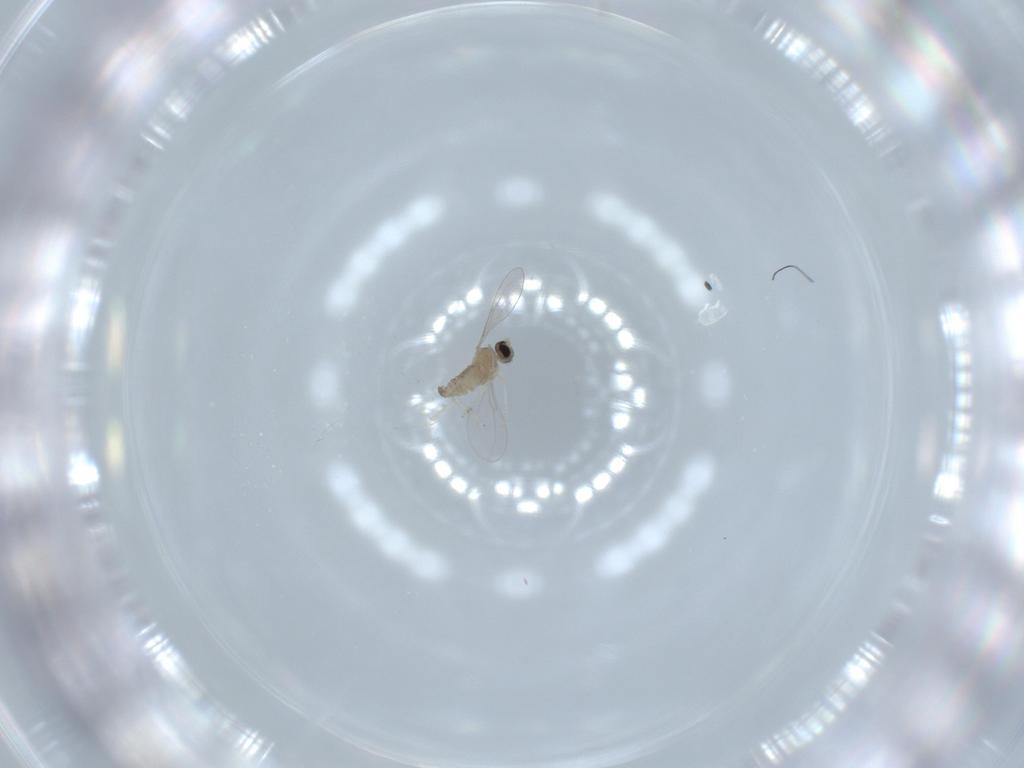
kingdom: Animalia
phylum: Arthropoda
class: Insecta
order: Diptera
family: Cecidomyiidae
